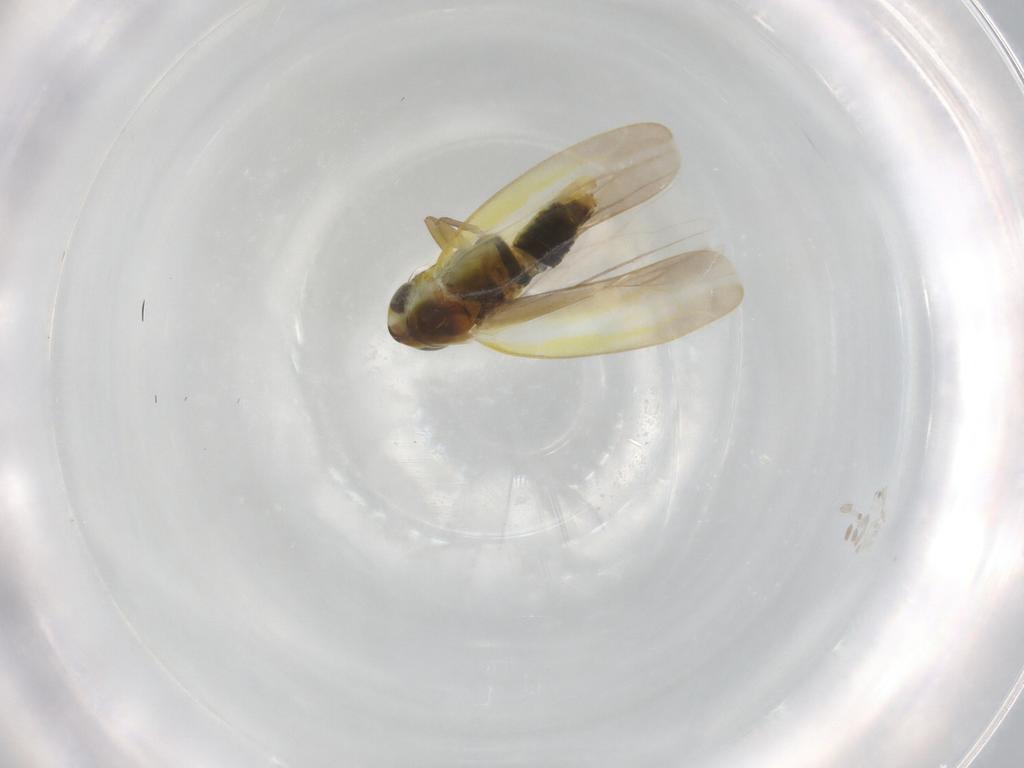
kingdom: Animalia
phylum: Arthropoda
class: Insecta
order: Hemiptera
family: Cicadellidae
